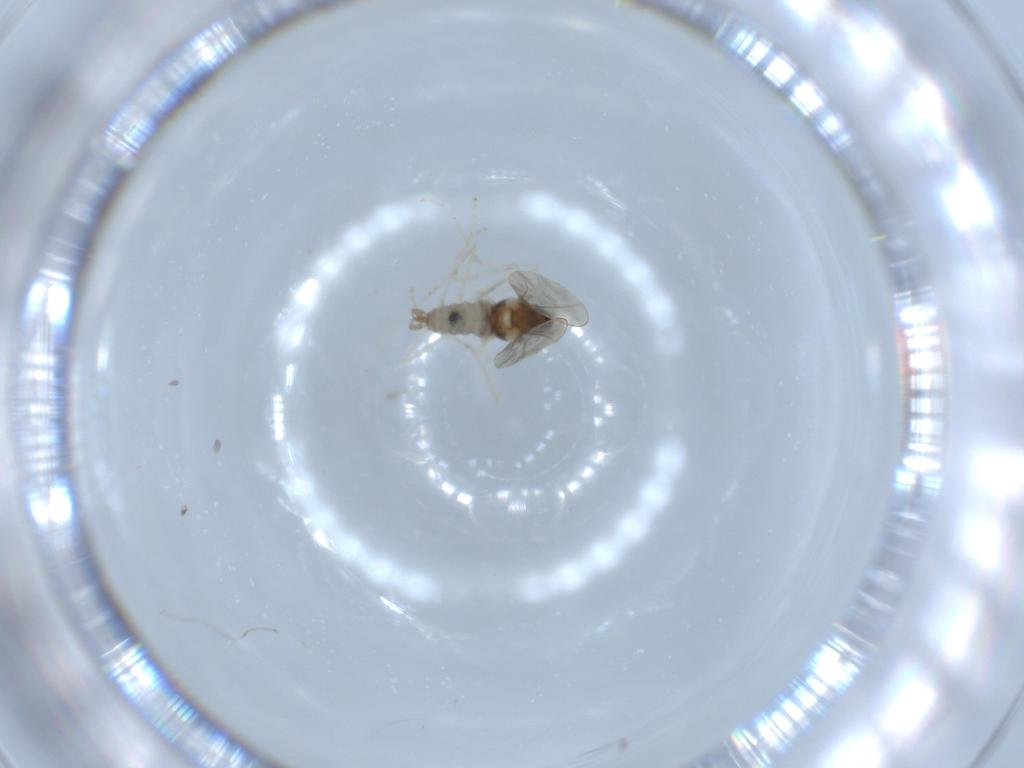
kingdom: Animalia
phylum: Arthropoda
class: Insecta
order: Diptera
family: Cecidomyiidae
